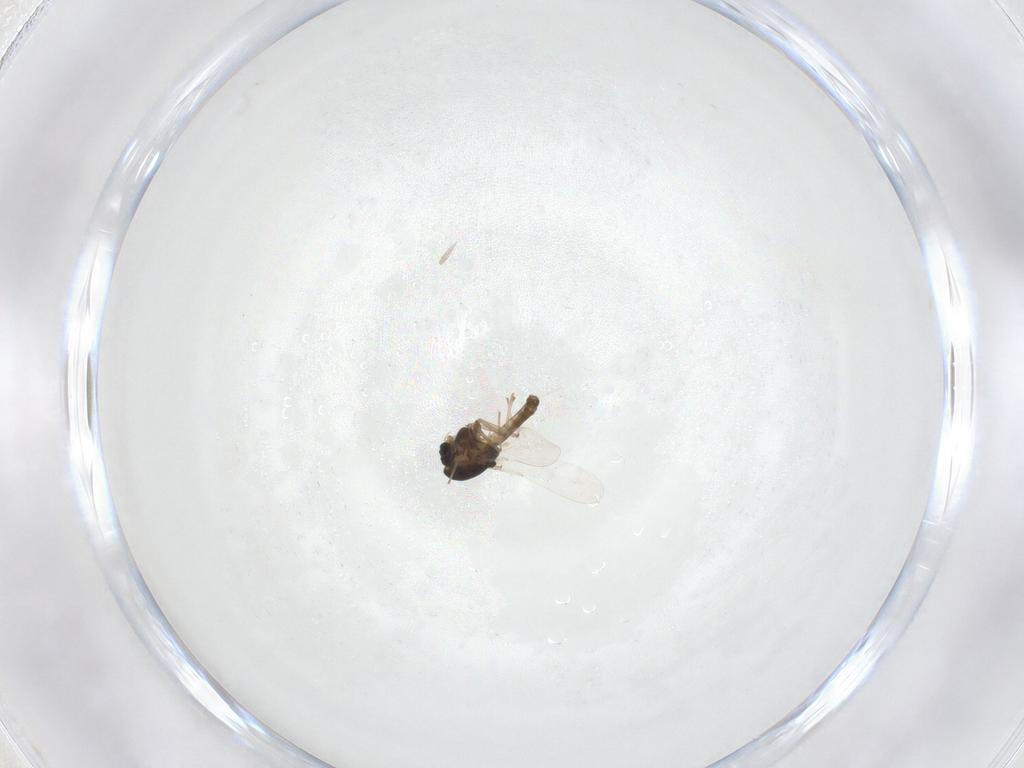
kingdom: Animalia
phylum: Arthropoda
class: Insecta
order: Diptera
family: Chironomidae
